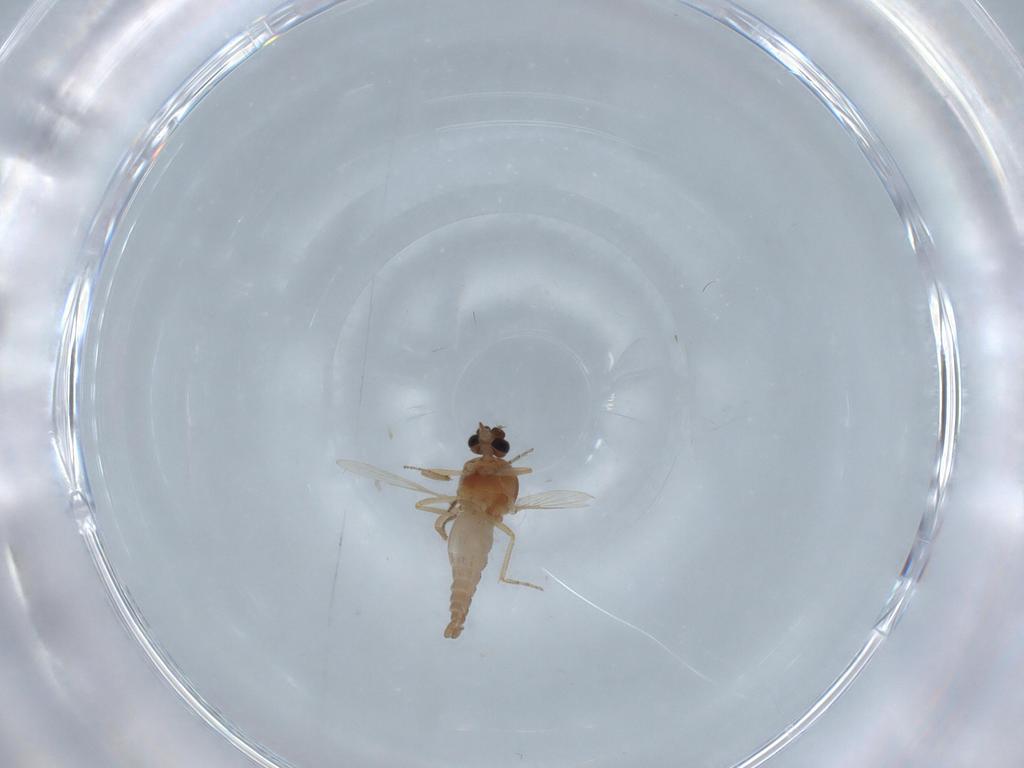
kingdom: Animalia
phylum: Arthropoda
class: Insecta
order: Diptera
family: Ceratopogonidae
